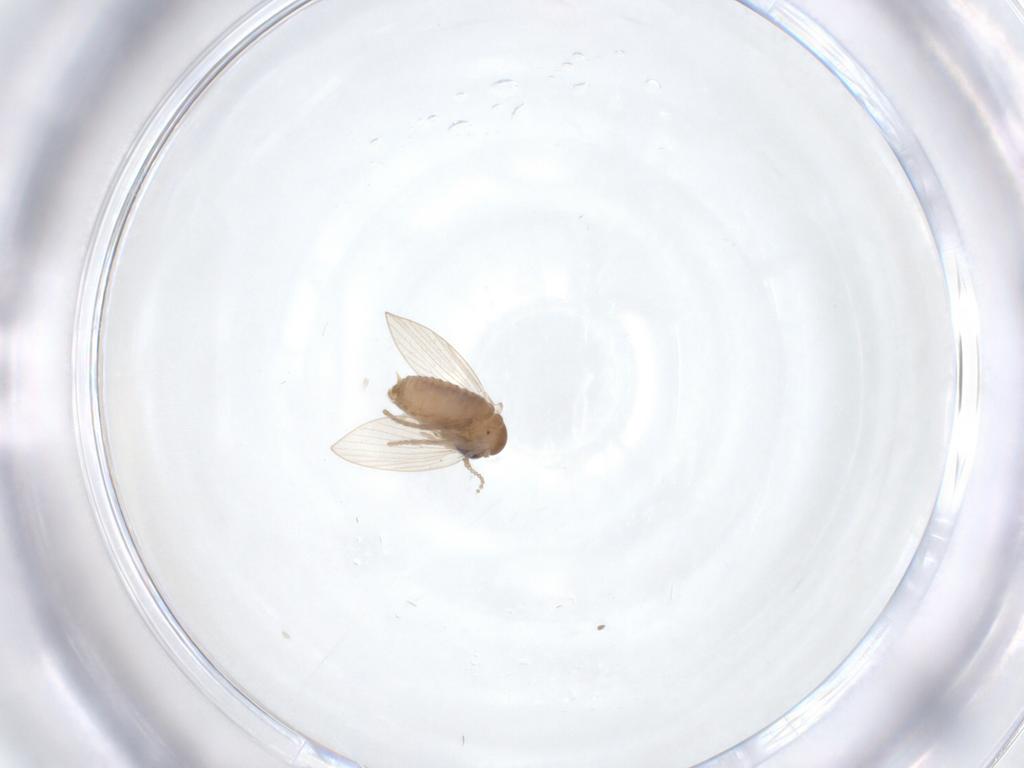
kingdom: Animalia
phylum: Arthropoda
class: Insecta
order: Diptera
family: Psychodidae
